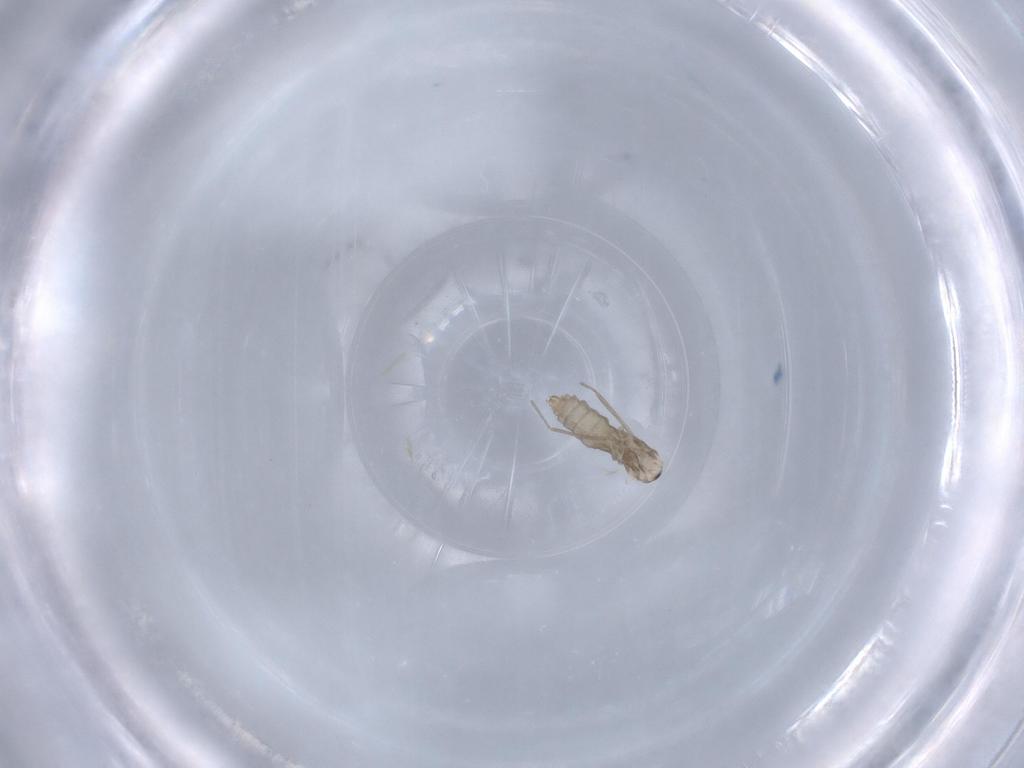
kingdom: Animalia
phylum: Arthropoda
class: Insecta
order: Diptera
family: Cecidomyiidae
